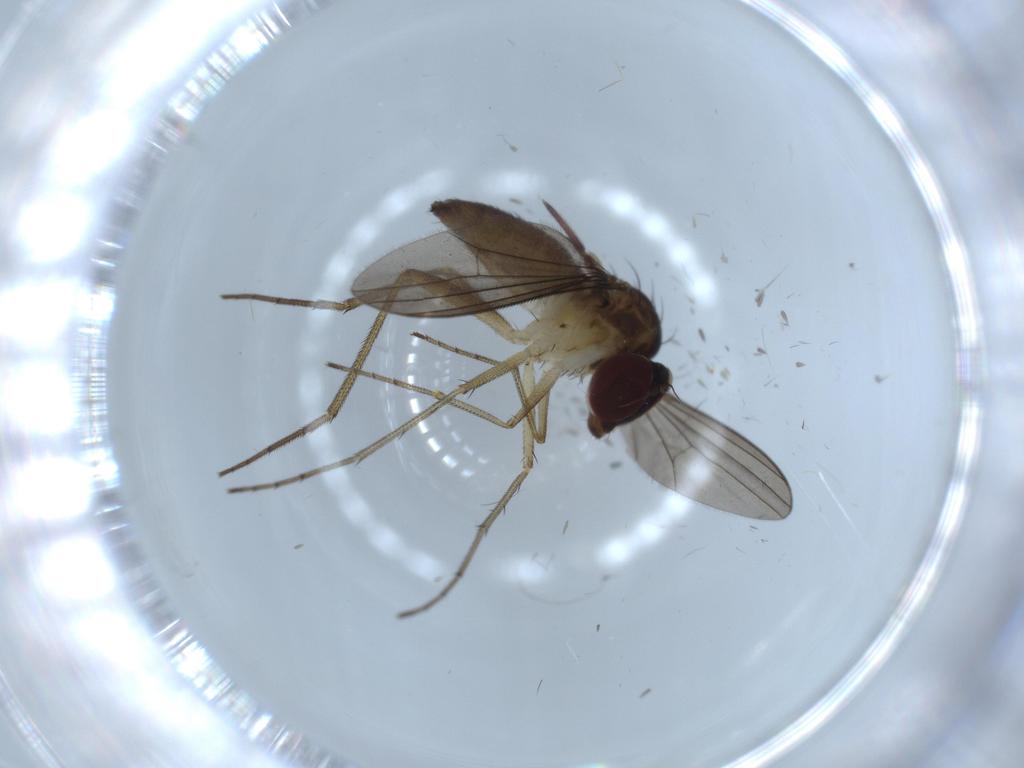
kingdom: Animalia
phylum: Arthropoda
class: Insecta
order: Diptera
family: Dolichopodidae
